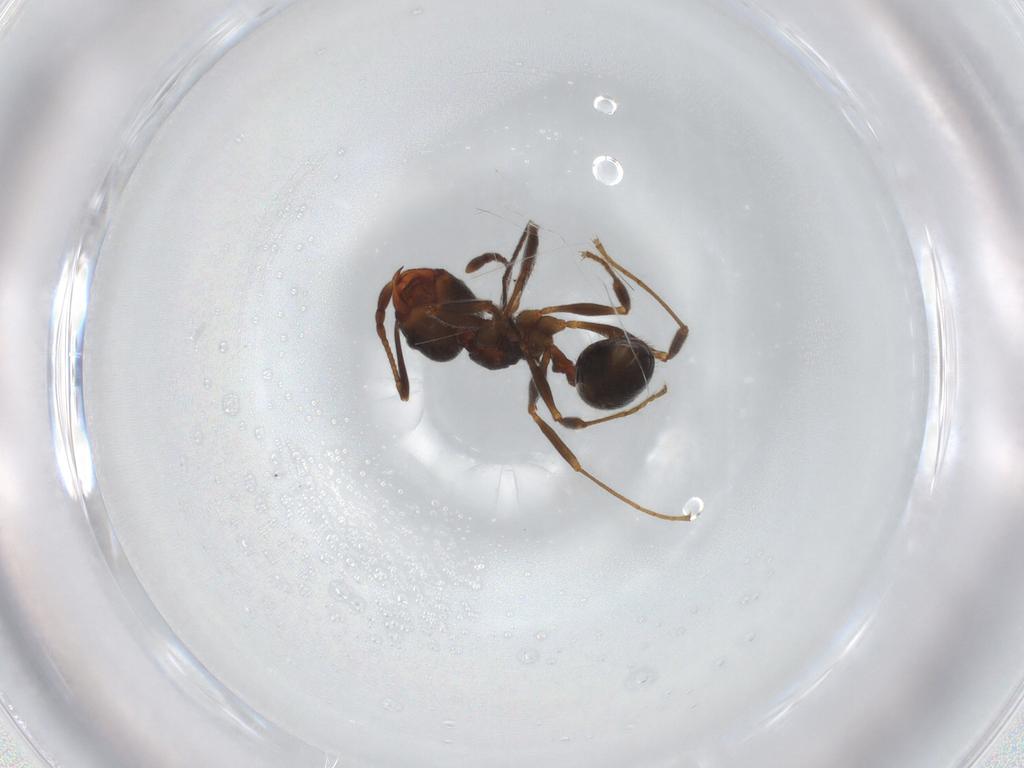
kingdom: Animalia
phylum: Arthropoda
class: Insecta
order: Hymenoptera
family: Formicidae
